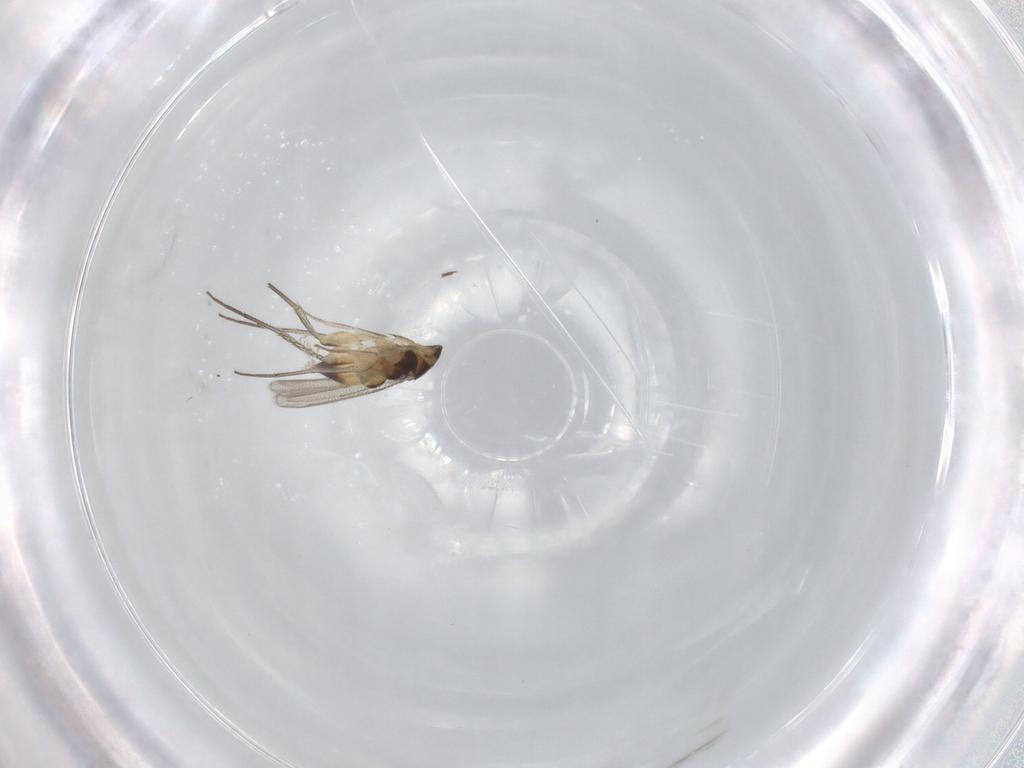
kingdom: Animalia
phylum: Arthropoda
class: Insecta
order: Hymenoptera
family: Eulophidae
